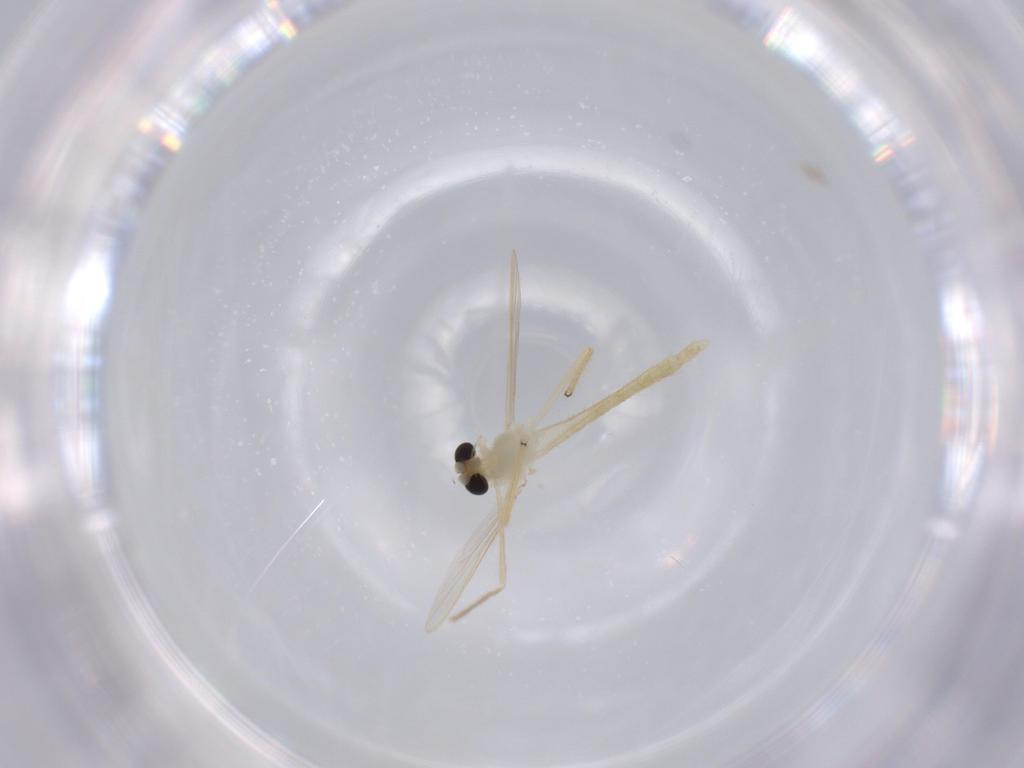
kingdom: Animalia
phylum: Arthropoda
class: Insecta
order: Diptera
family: Chironomidae
